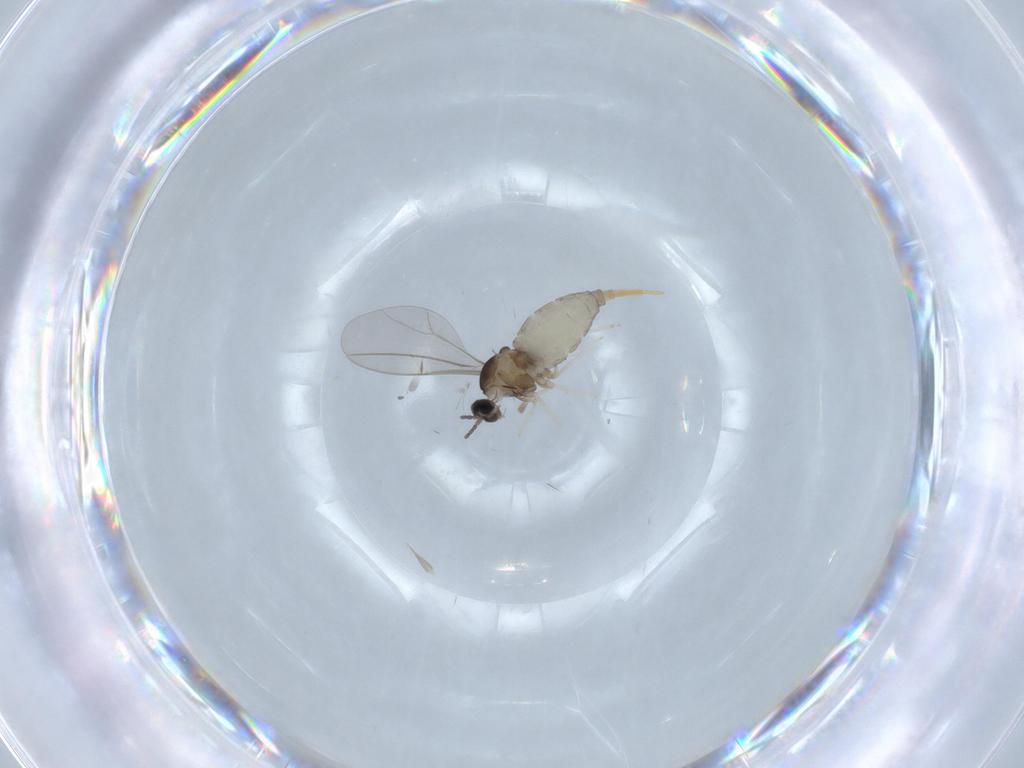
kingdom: Animalia
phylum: Arthropoda
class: Insecta
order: Diptera
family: Cecidomyiidae
